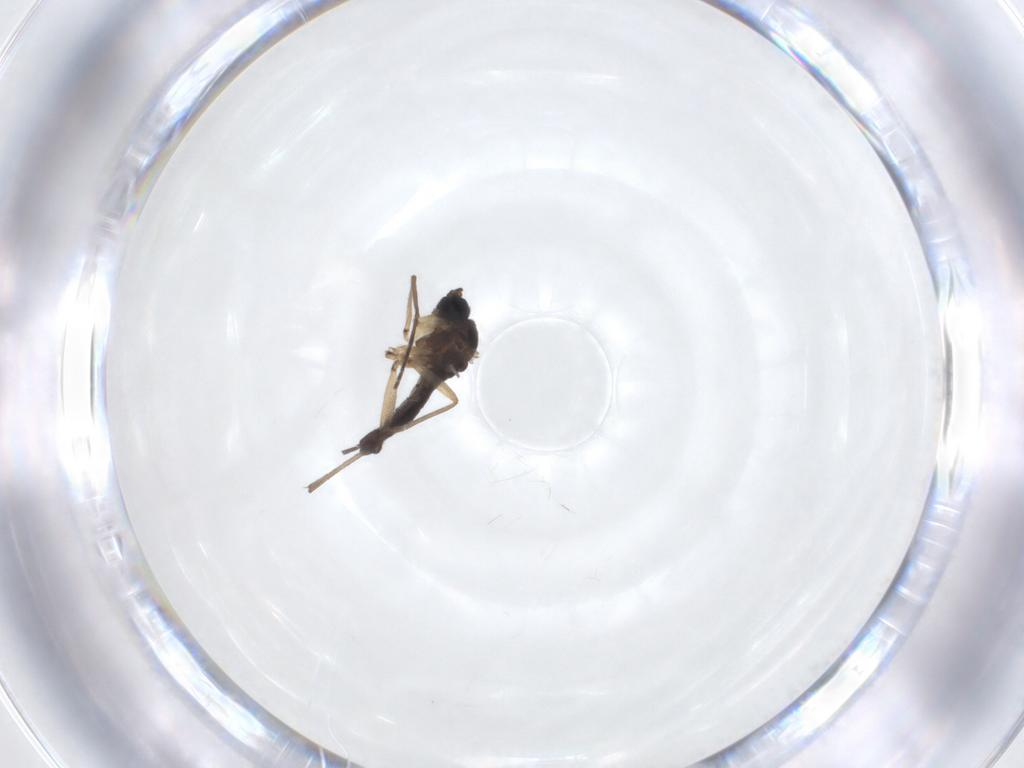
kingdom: Animalia
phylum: Arthropoda
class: Insecta
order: Diptera
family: Sciaridae
